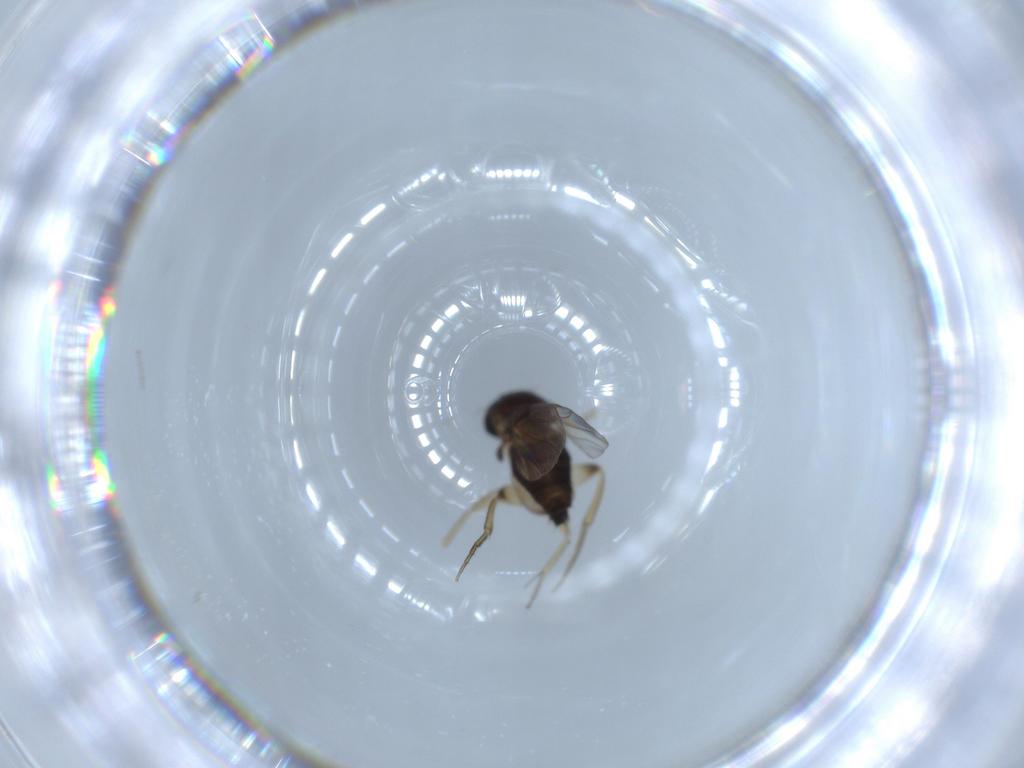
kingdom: Animalia
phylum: Arthropoda
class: Insecta
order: Diptera
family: Phoridae
